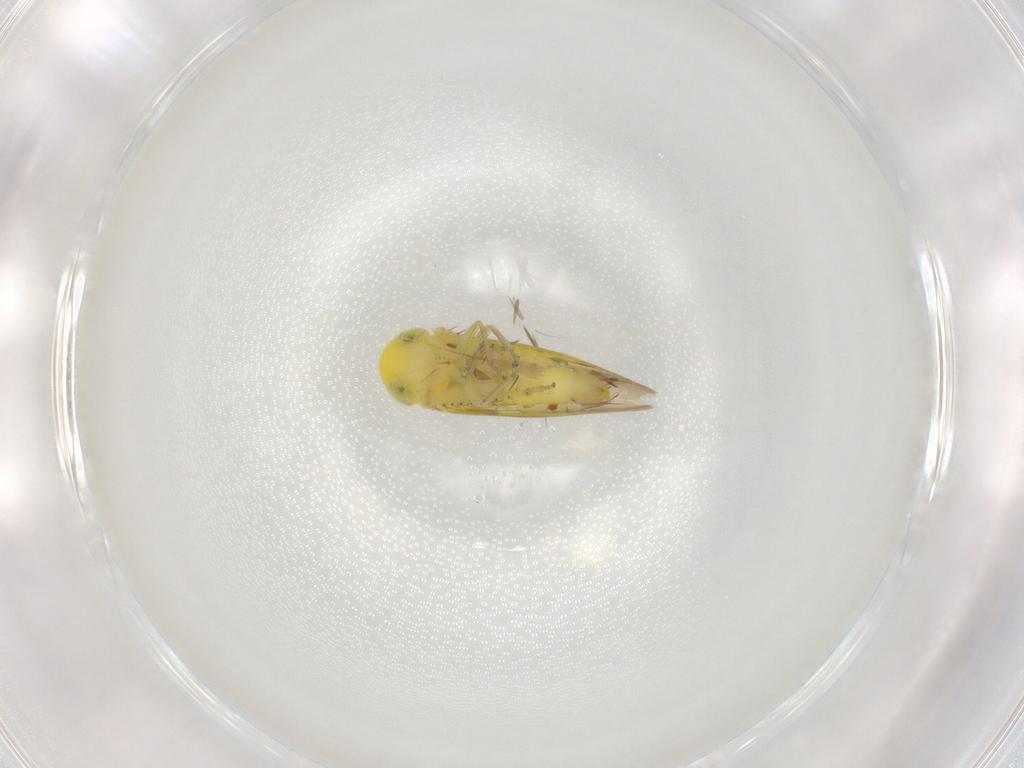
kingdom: Animalia
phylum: Arthropoda
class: Insecta
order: Hemiptera
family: Cicadellidae
